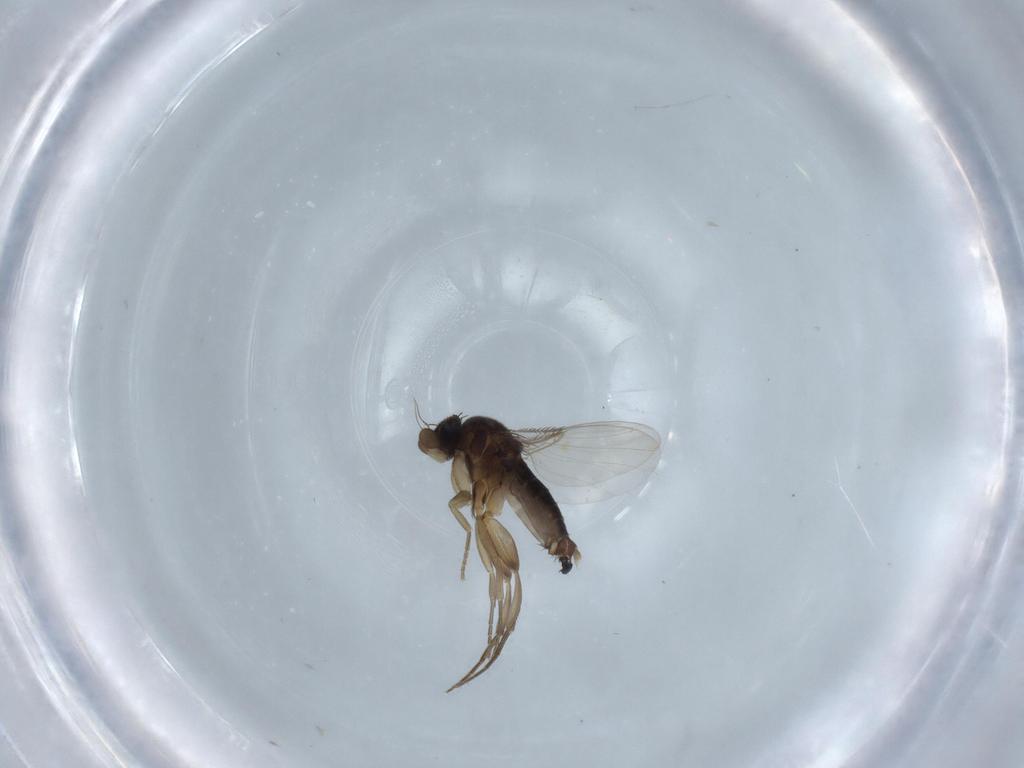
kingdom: Animalia
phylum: Arthropoda
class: Insecta
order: Diptera
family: Phoridae
